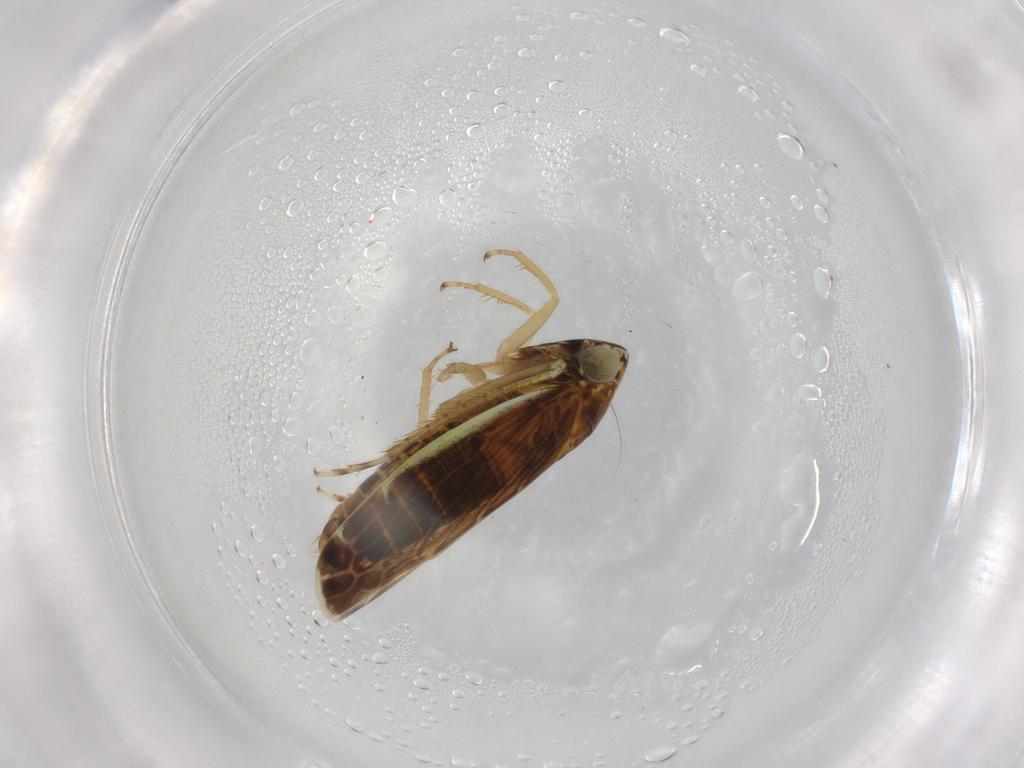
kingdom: Animalia
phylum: Arthropoda
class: Insecta
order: Hemiptera
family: Cicadellidae
